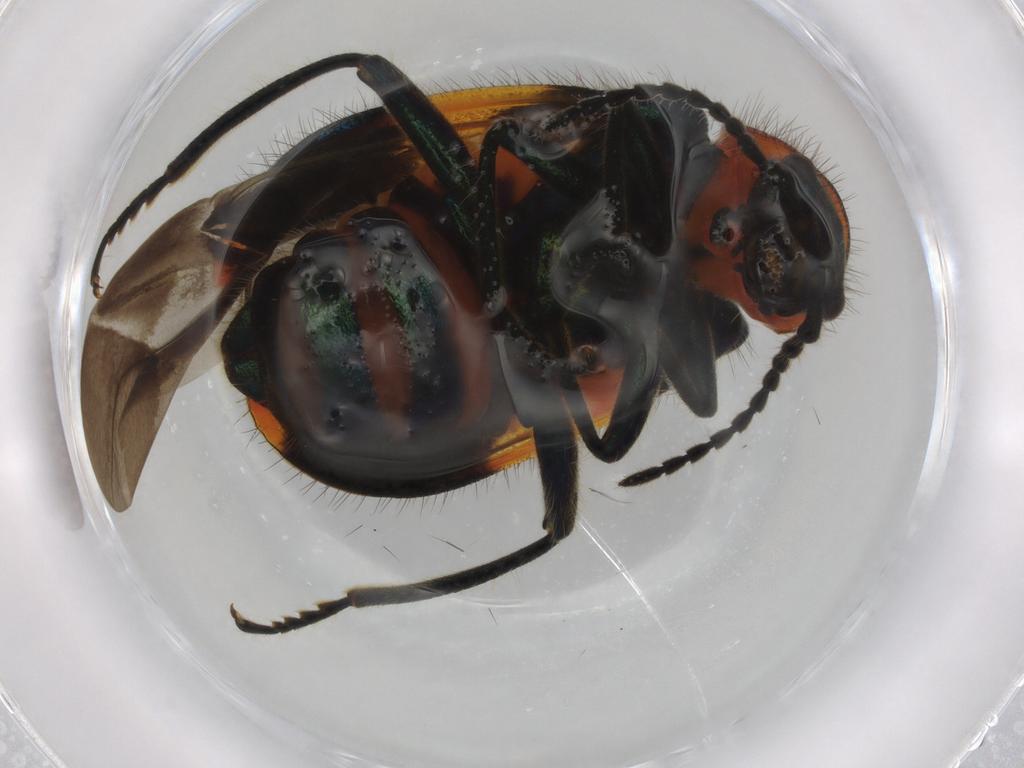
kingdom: Animalia
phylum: Arthropoda
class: Insecta
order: Coleoptera
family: Melyridae
